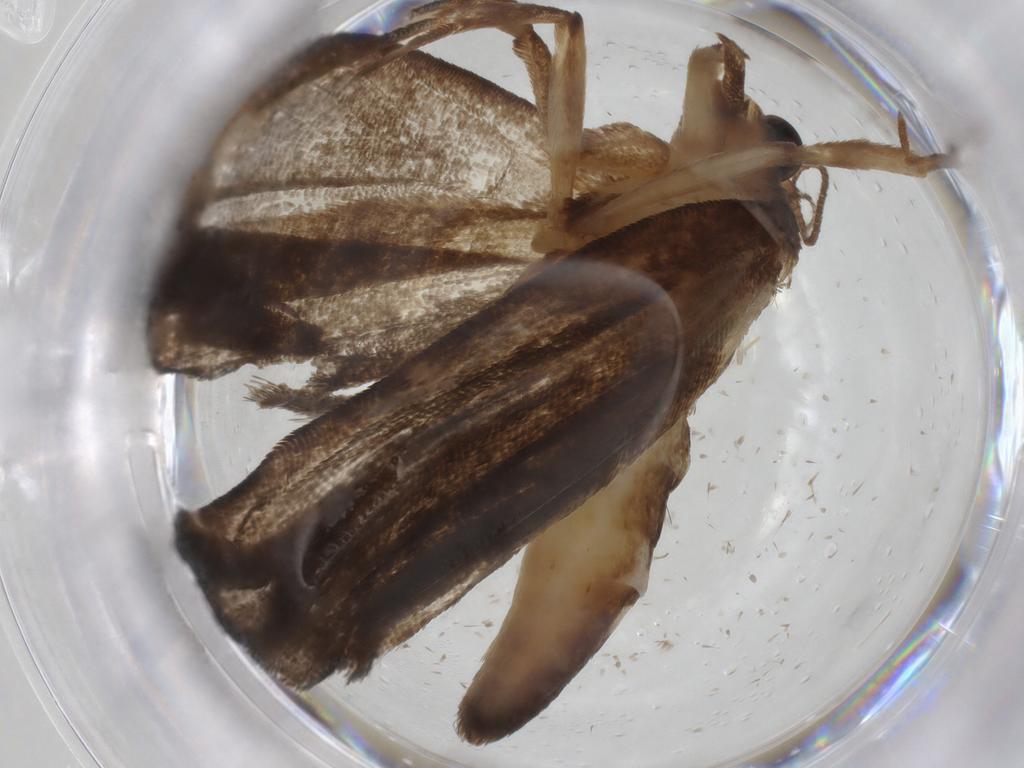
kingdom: Animalia
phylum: Arthropoda
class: Insecta
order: Lepidoptera
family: Immidae
